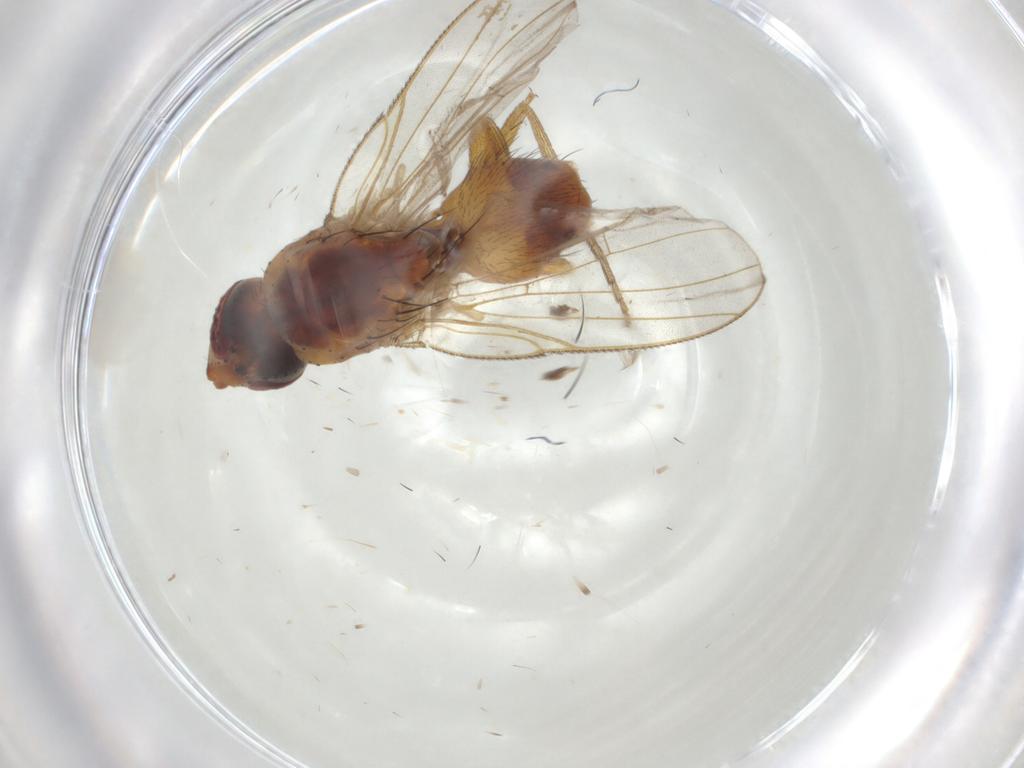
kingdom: Animalia
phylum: Arthropoda
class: Insecta
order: Diptera
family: Muscidae
